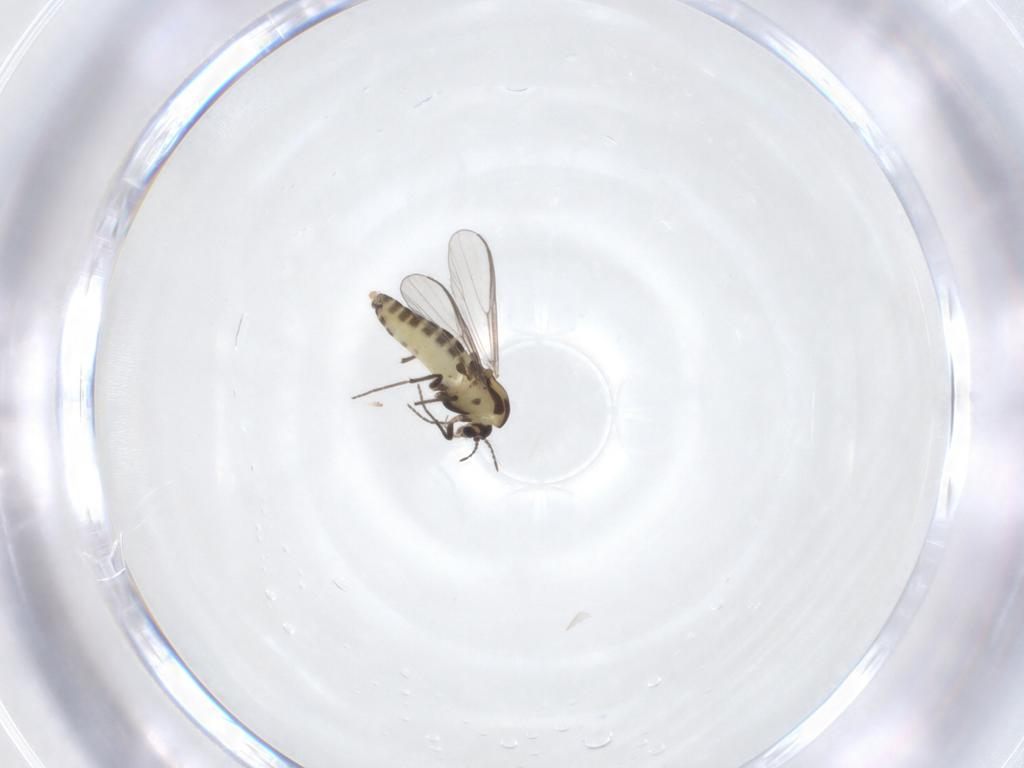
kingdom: Animalia
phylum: Arthropoda
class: Insecta
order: Diptera
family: Chironomidae
